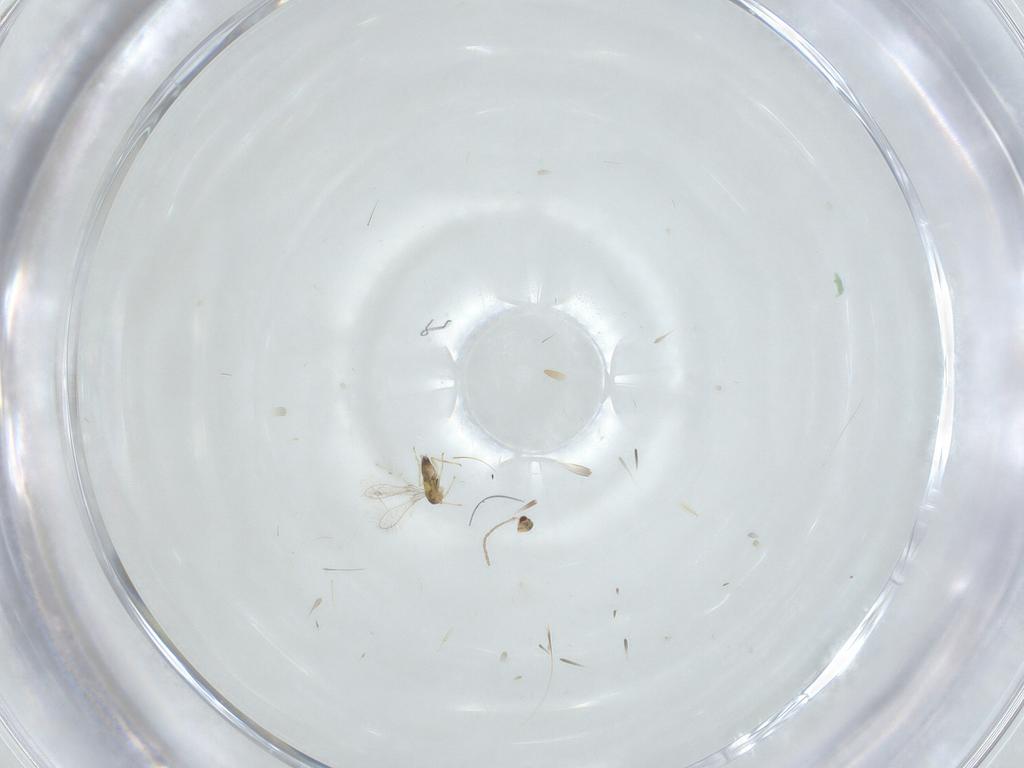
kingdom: Animalia
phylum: Arthropoda
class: Insecta
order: Hymenoptera
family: Mymaridae
